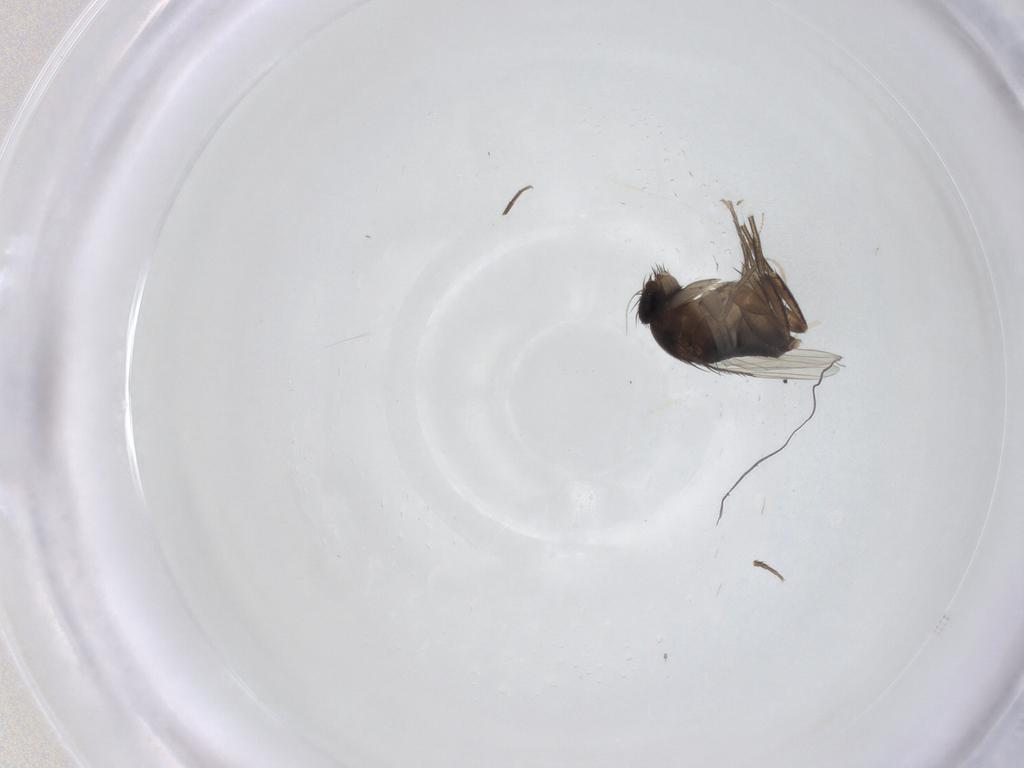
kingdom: Animalia
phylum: Arthropoda
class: Insecta
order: Diptera
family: Phoridae
